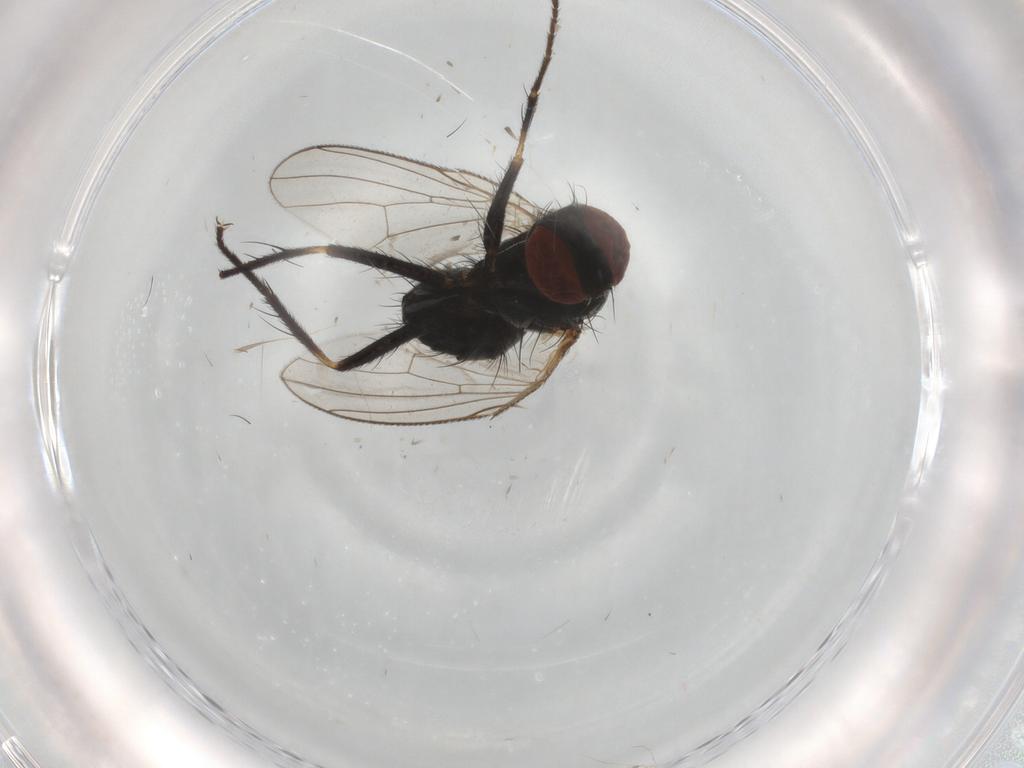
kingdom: Animalia
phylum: Arthropoda
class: Insecta
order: Diptera
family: Muscidae
